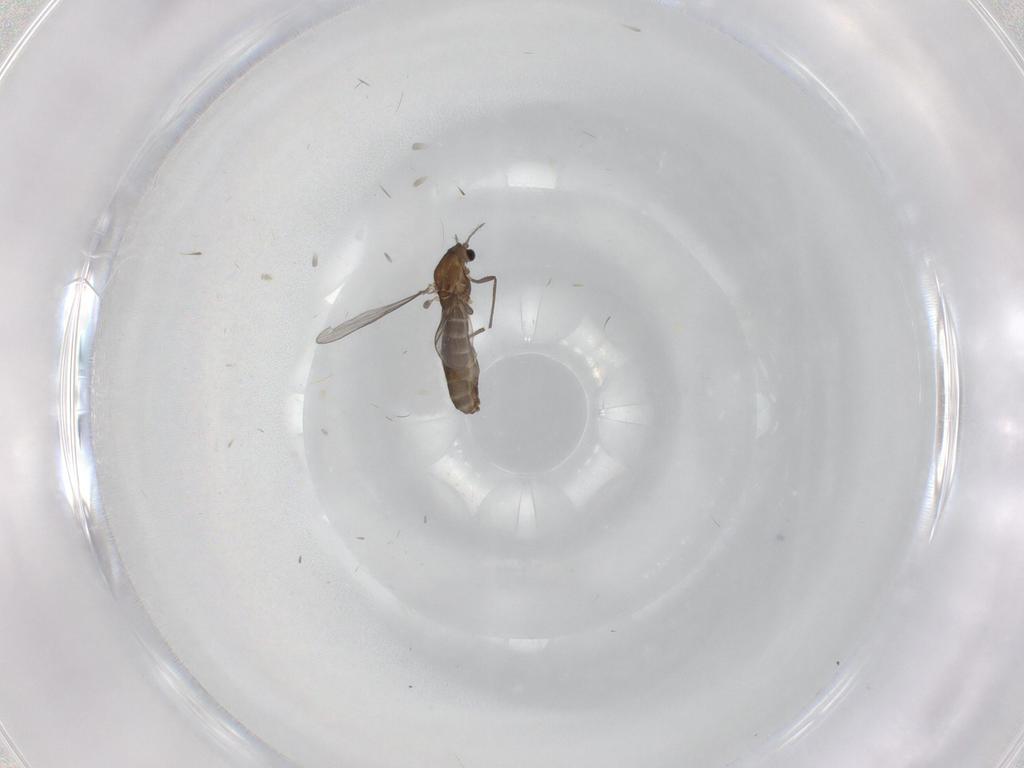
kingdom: Animalia
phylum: Arthropoda
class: Insecta
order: Diptera
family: Chironomidae
